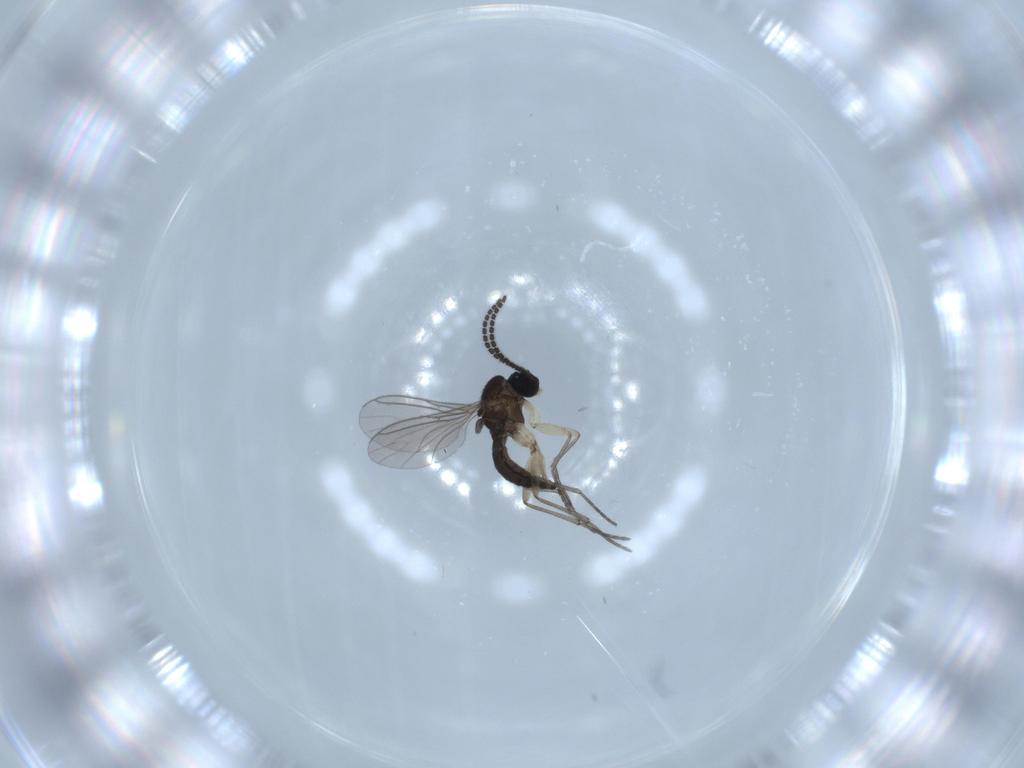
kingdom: Animalia
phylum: Arthropoda
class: Insecta
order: Diptera
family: Sciaridae
